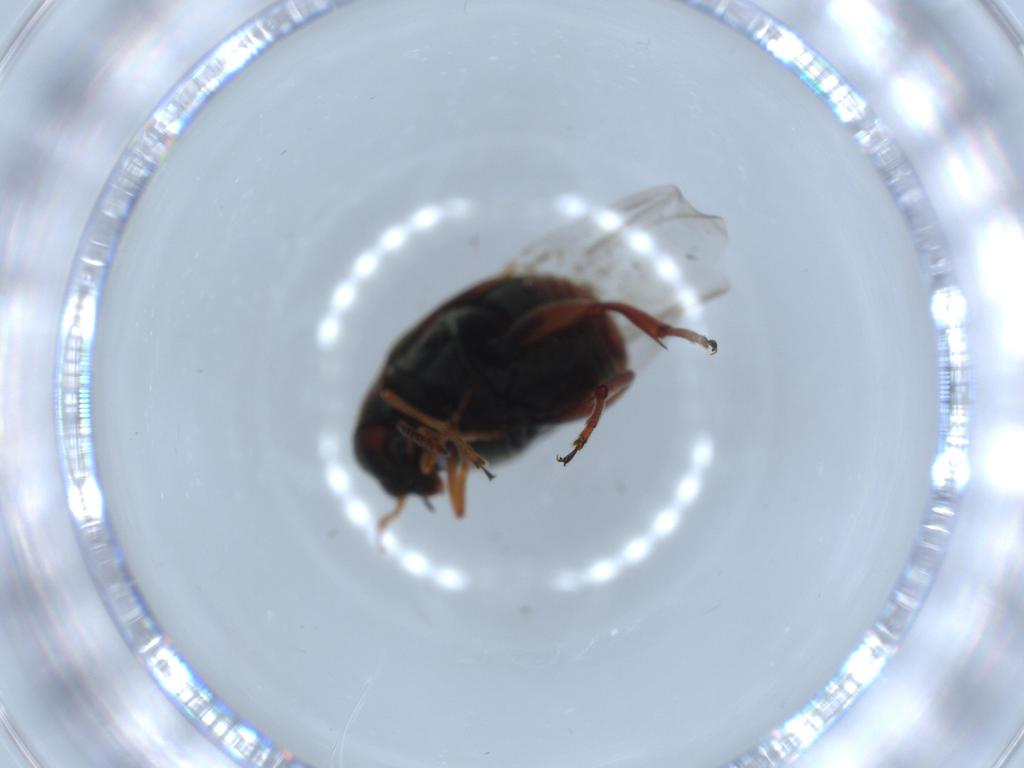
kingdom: Animalia
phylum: Arthropoda
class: Insecta
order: Coleoptera
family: Chrysomelidae
